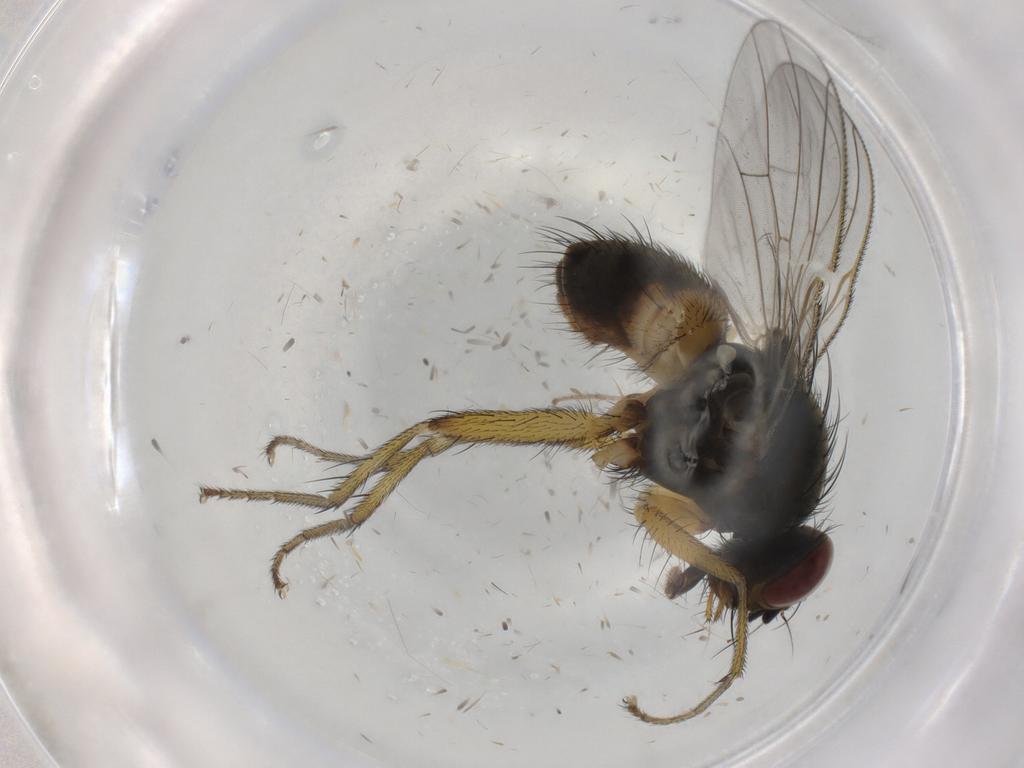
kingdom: Animalia
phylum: Arthropoda
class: Insecta
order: Diptera
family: Muscidae
